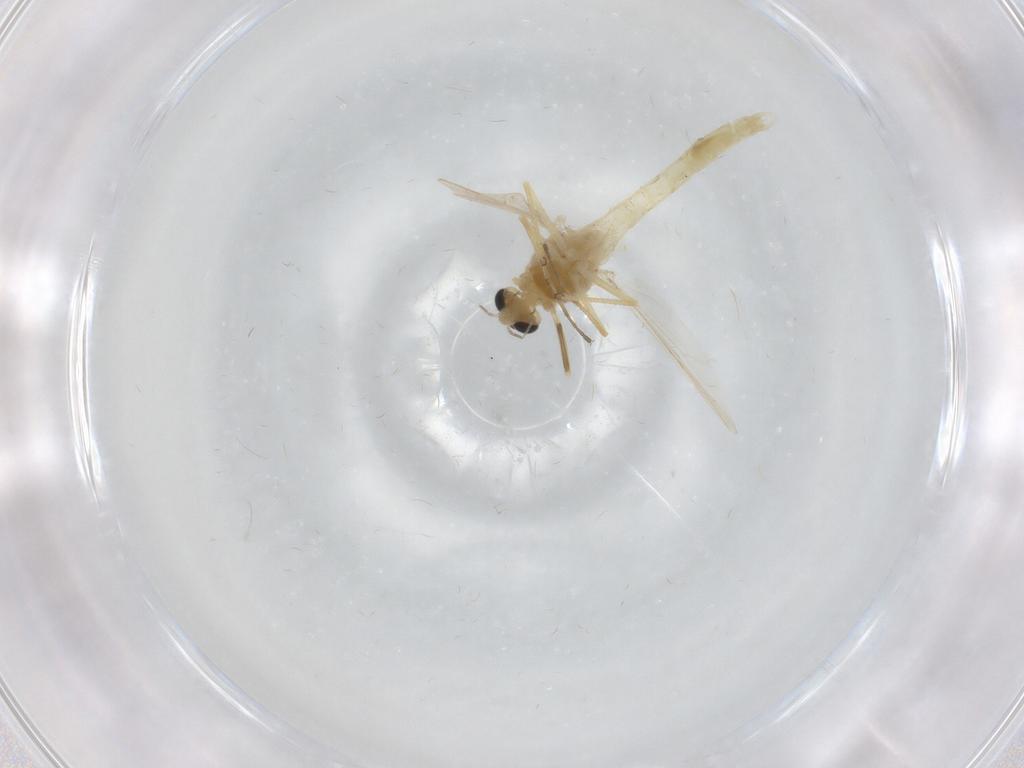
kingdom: Animalia
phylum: Arthropoda
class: Insecta
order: Diptera
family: Chironomidae
